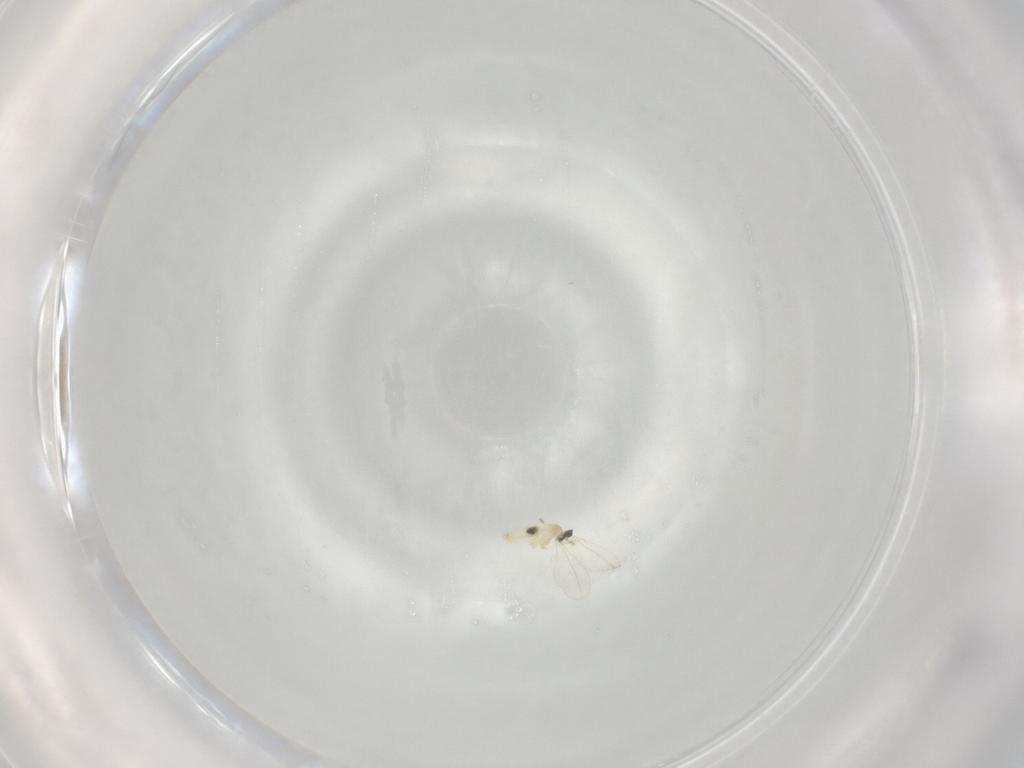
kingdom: Animalia
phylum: Arthropoda
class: Insecta
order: Diptera
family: Cecidomyiidae
